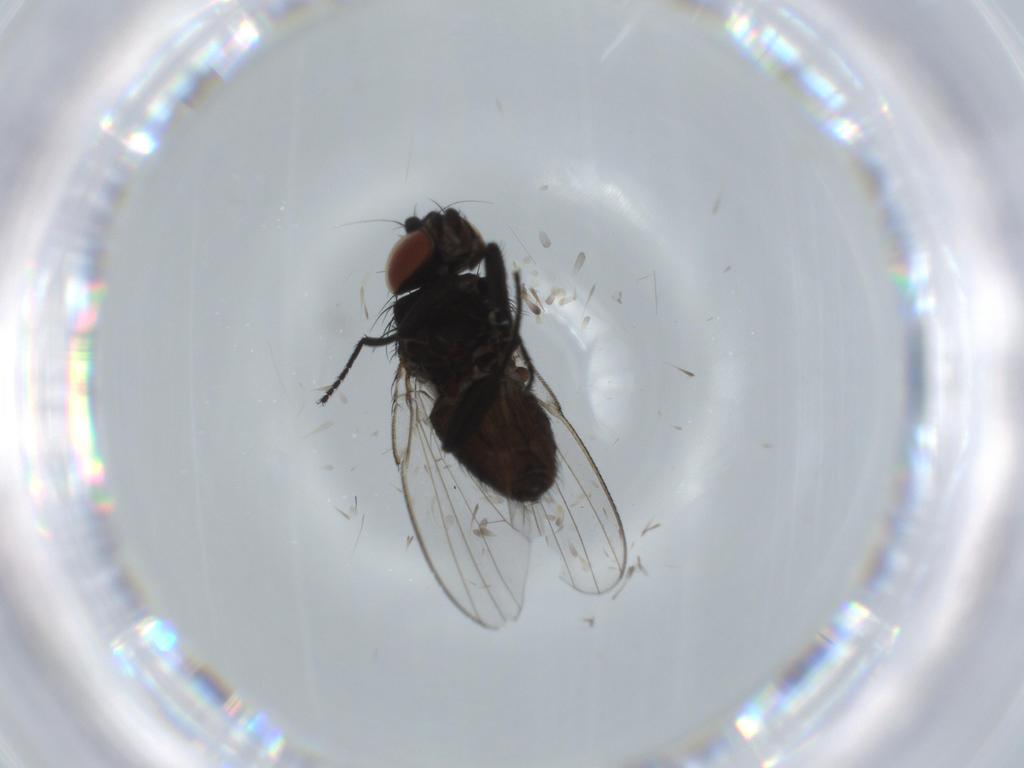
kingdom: Animalia
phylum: Arthropoda
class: Insecta
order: Diptera
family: Milichiidae
